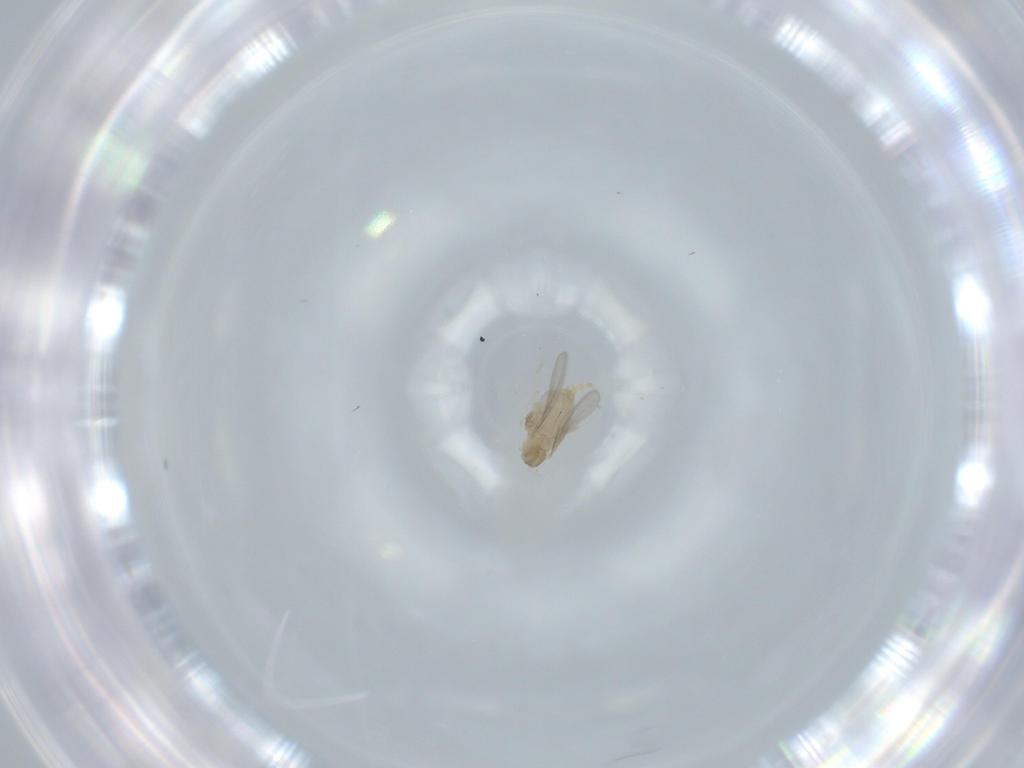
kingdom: Animalia
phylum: Arthropoda
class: Insecta
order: Diptera
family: Cecidomyiidae
